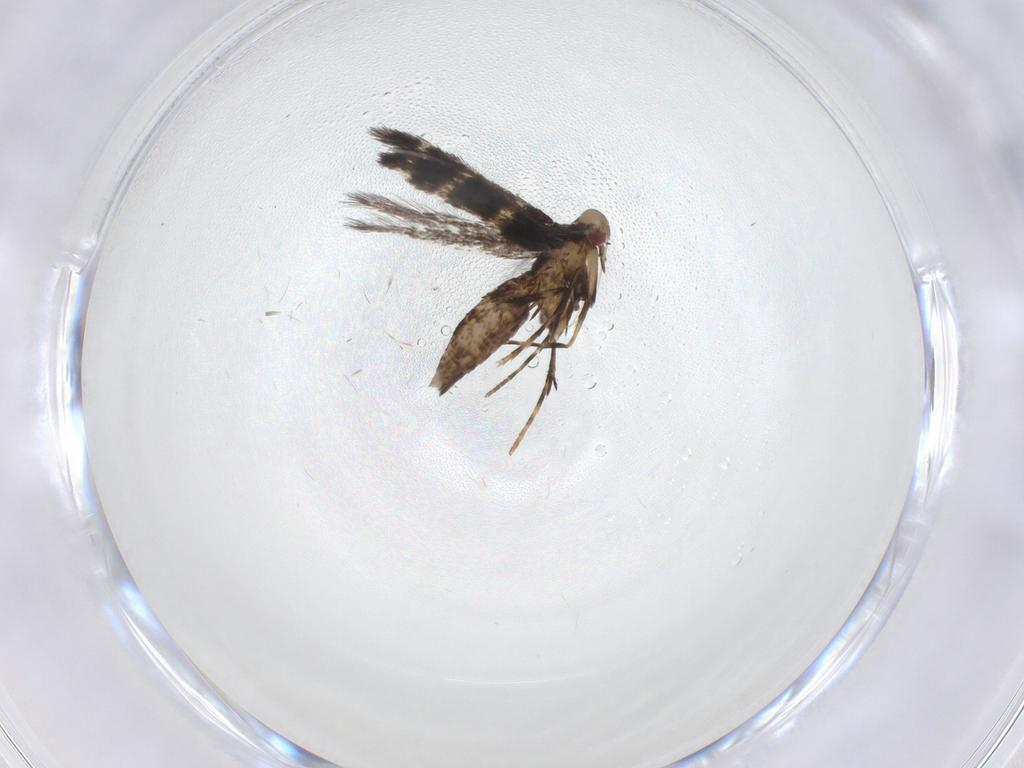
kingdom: Animalia
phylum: Arthropoda
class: Insecta
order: Lepidoptera
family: Gracillariidae
